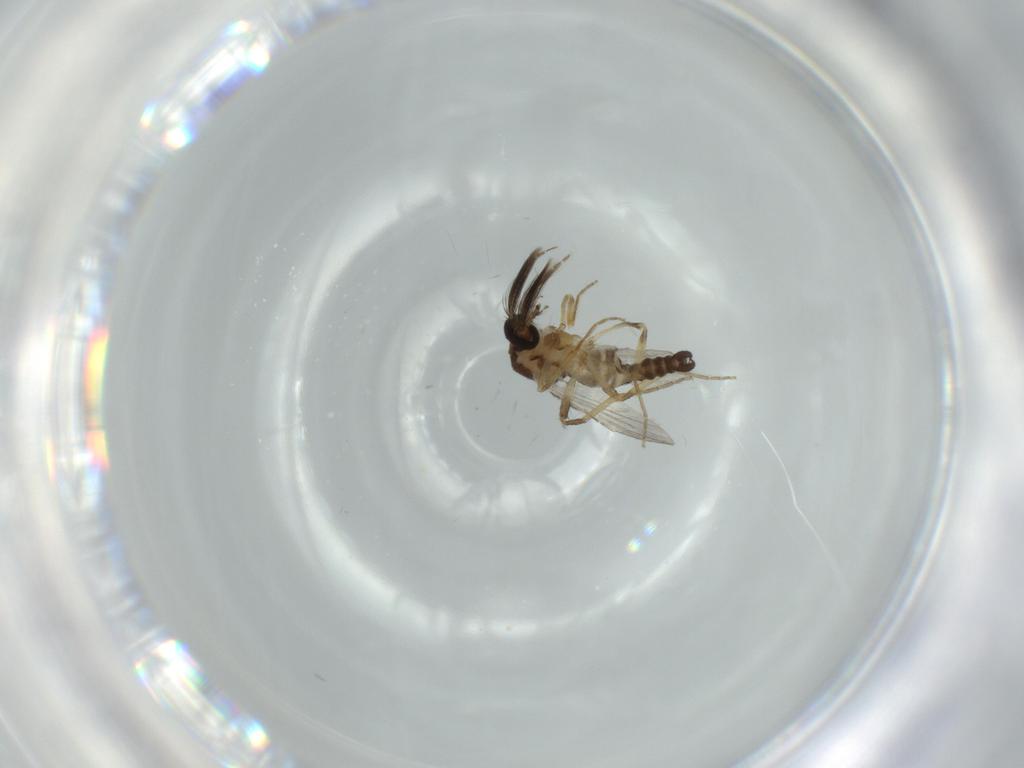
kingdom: Animalia
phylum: Arthropoda
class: Insecta
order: Diptera
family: Ceratopogonidae
